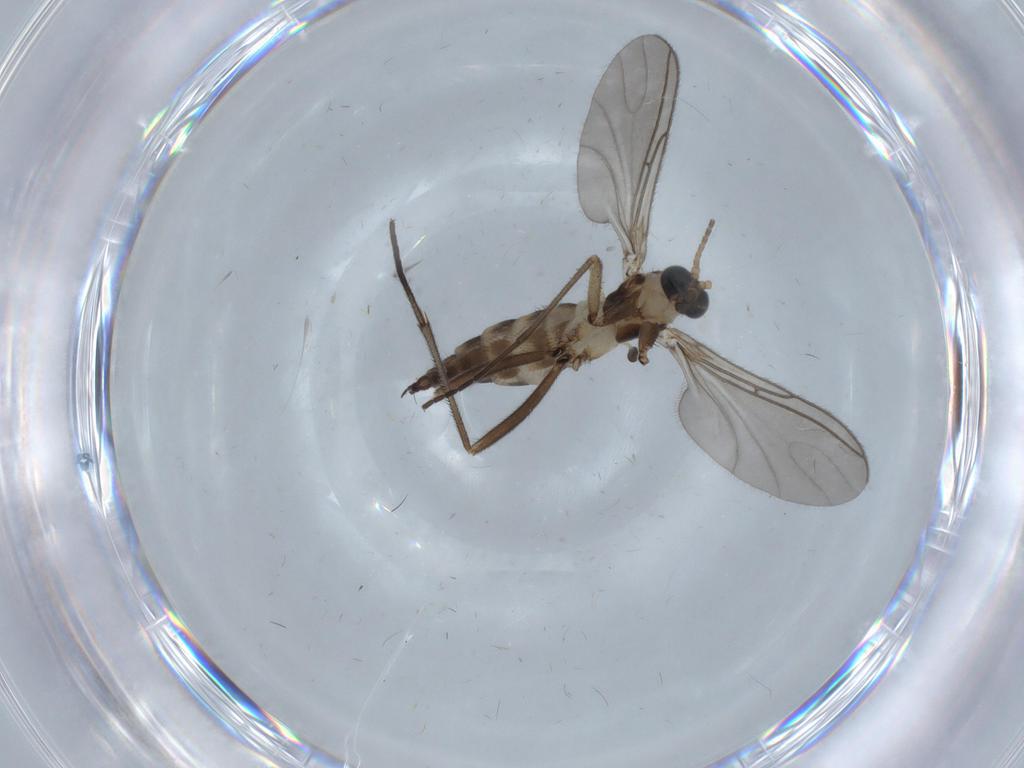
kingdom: Animalia
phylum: Arthropoda
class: Insecta
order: Diptera
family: Sciaridae
